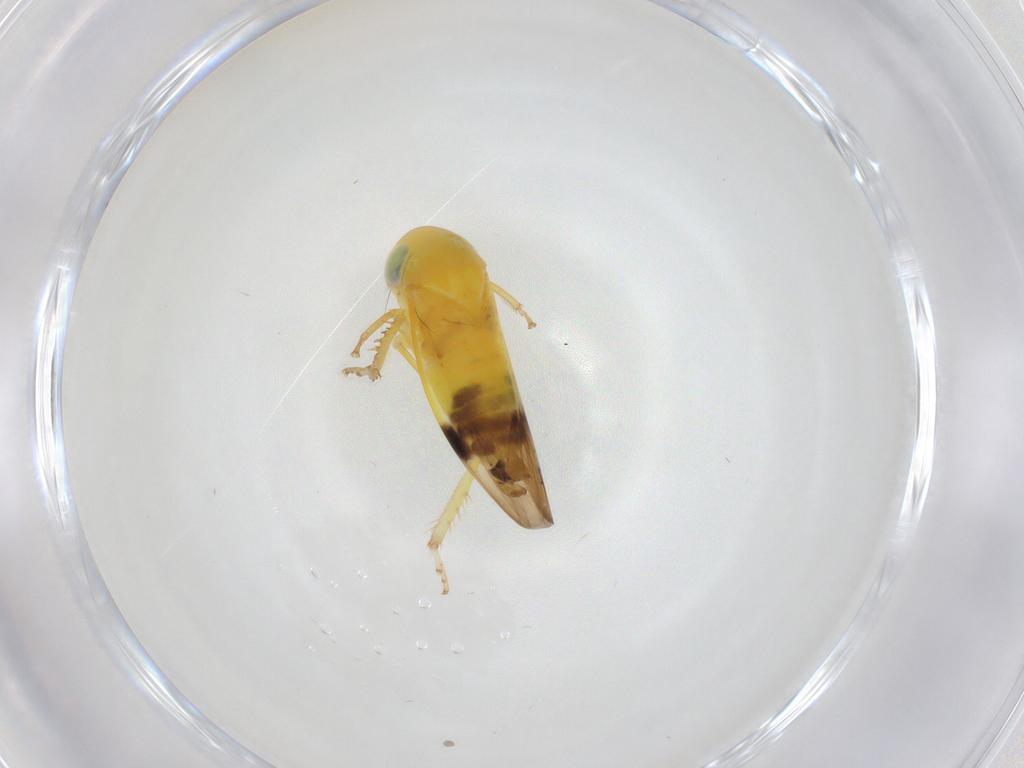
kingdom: Animalia
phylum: Arthropoda
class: Insecta
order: Hemiptera
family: Cicadellidae
